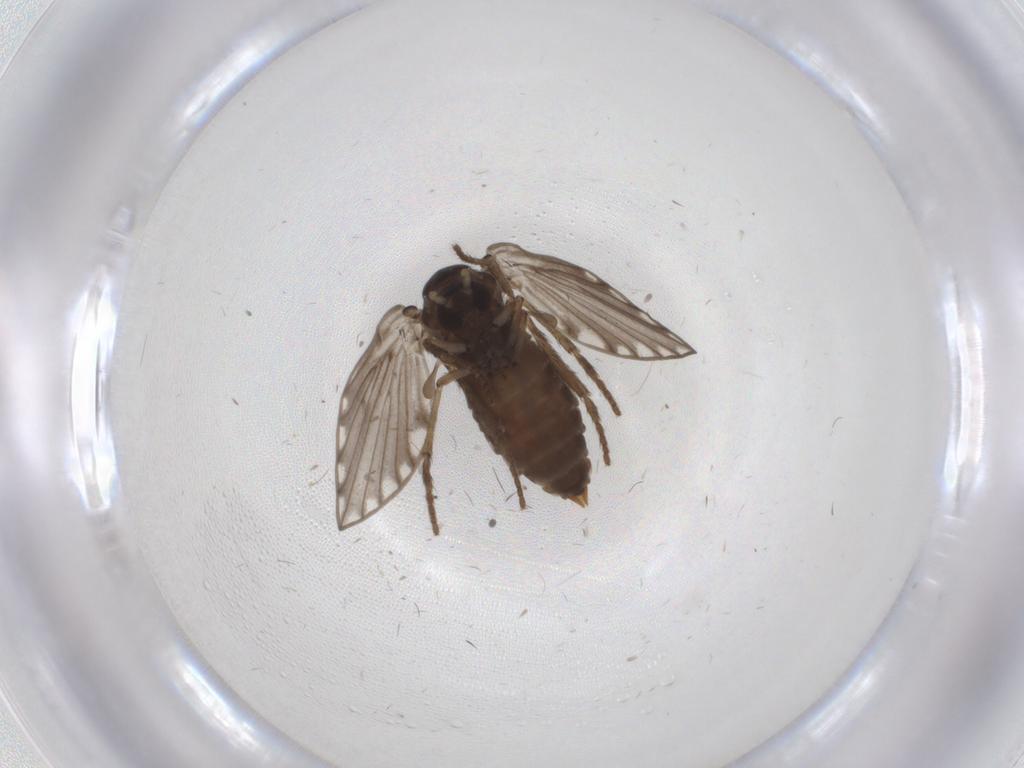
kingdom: Animalia
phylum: Arthropoda
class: Insecta
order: Diptera
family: Psychodidae
